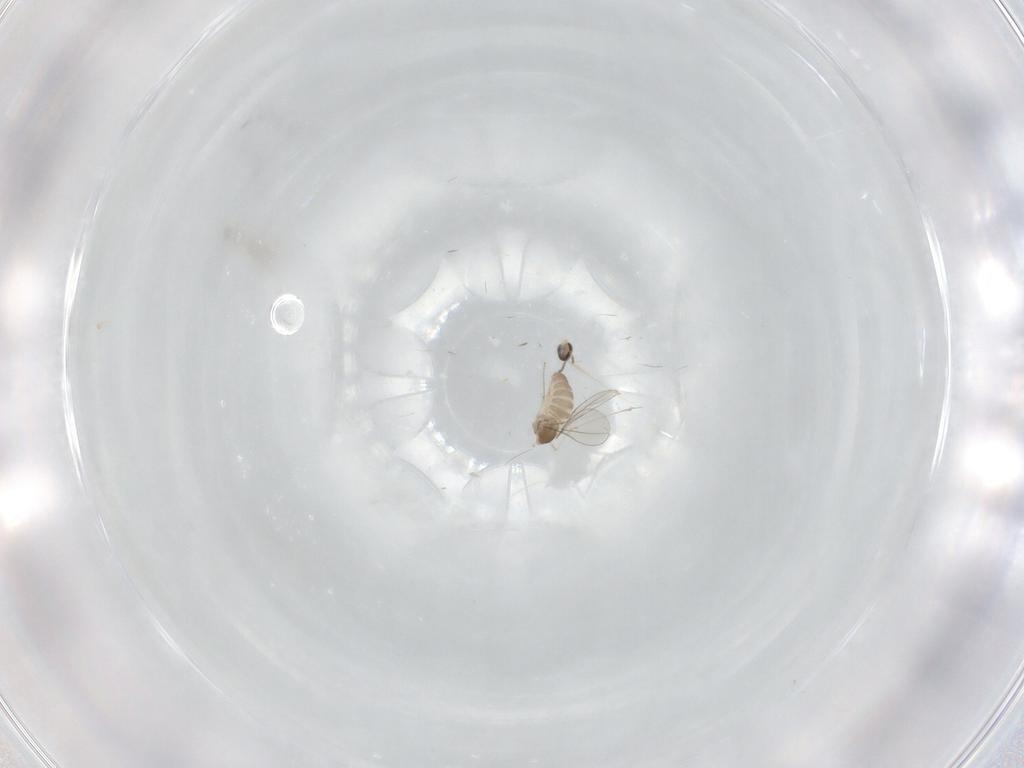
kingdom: Animalia
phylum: Arthropoda
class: Insecta
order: Diptera
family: Cecidomyiidae
